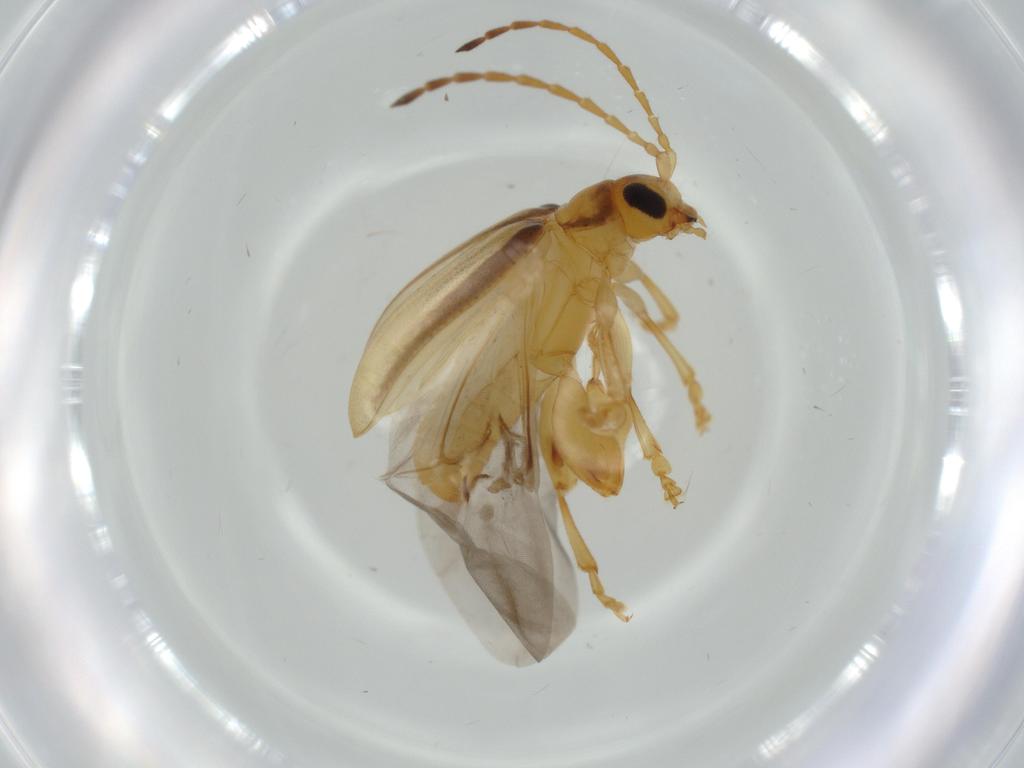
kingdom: Animalia
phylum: Arthropoda
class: Insecta
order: Coleoptera
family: Chrysomelidae
